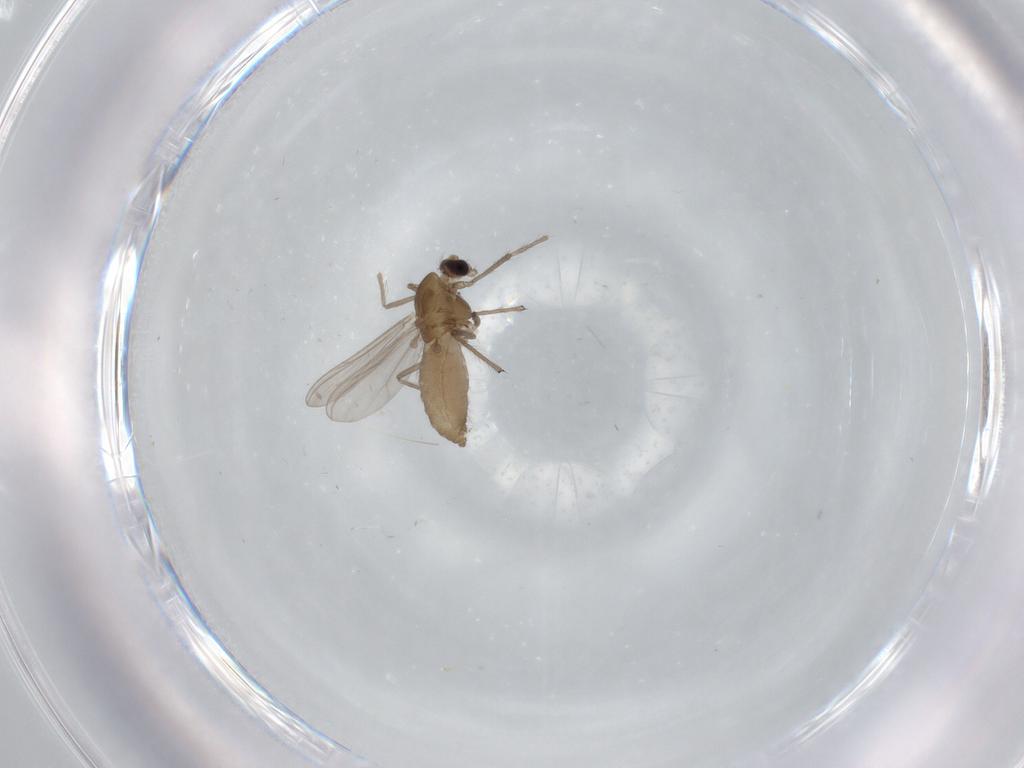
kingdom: Animalia
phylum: Arthropoda
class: Insecta
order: Diptera
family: Chironomidae
